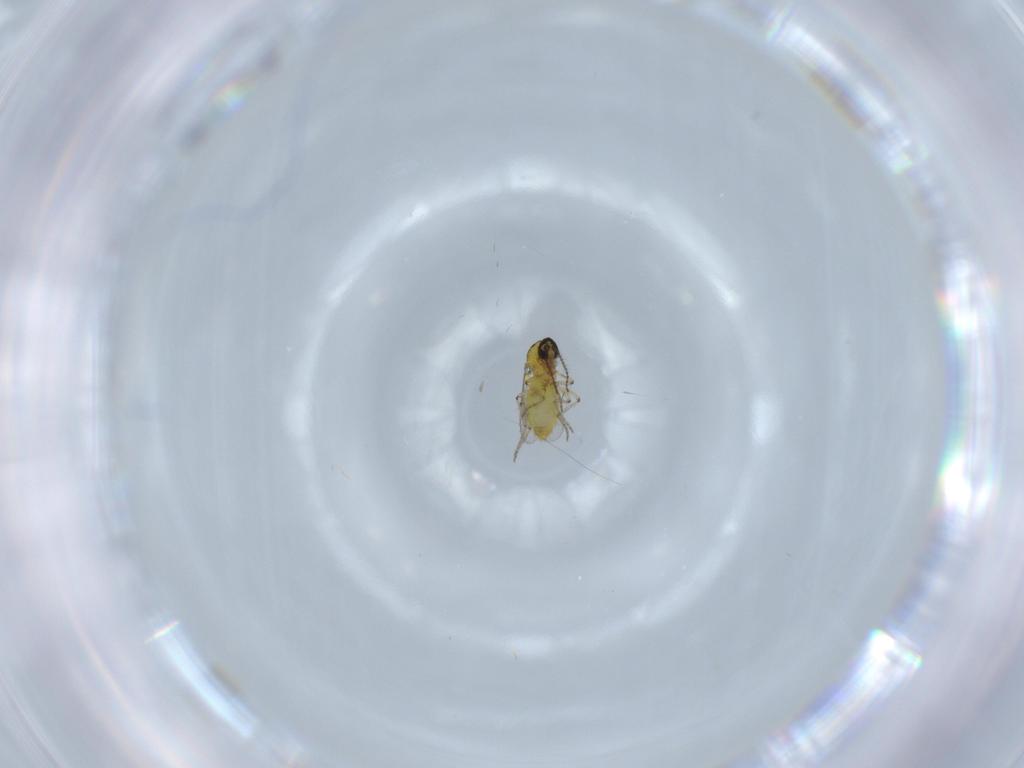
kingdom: Animalia
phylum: Arthropoda
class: Insecta
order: Diptera
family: Ceratopogonidae
